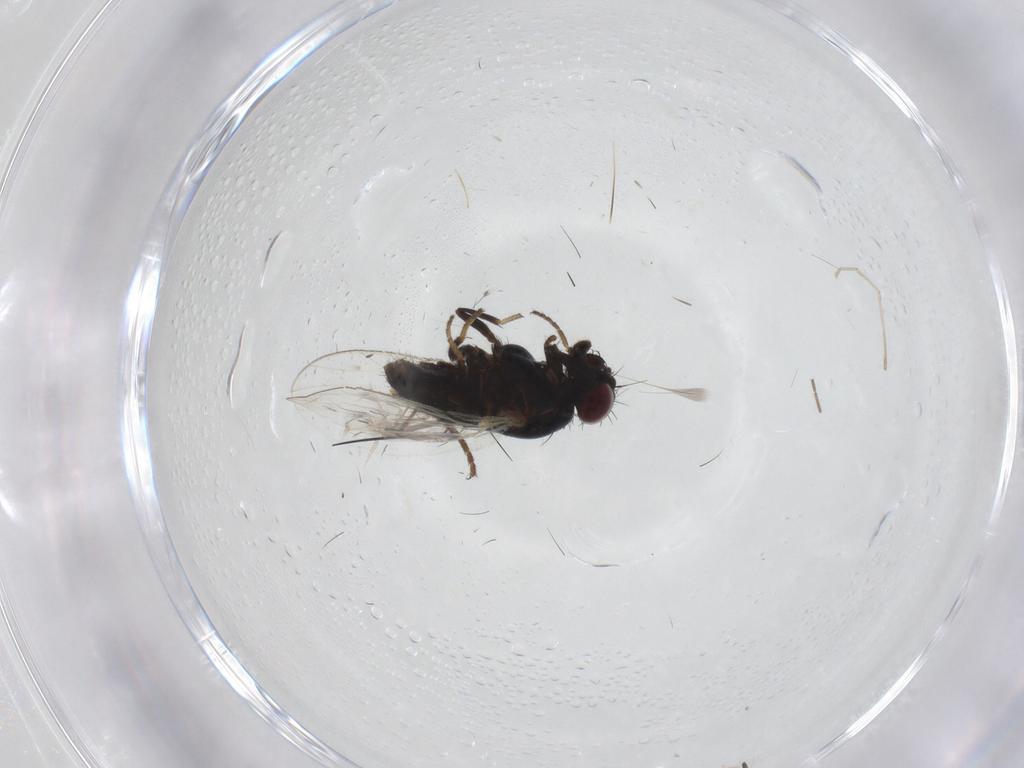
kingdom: Animalia
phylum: Arthropoda
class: Insecta
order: Diptera
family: Carnidae
